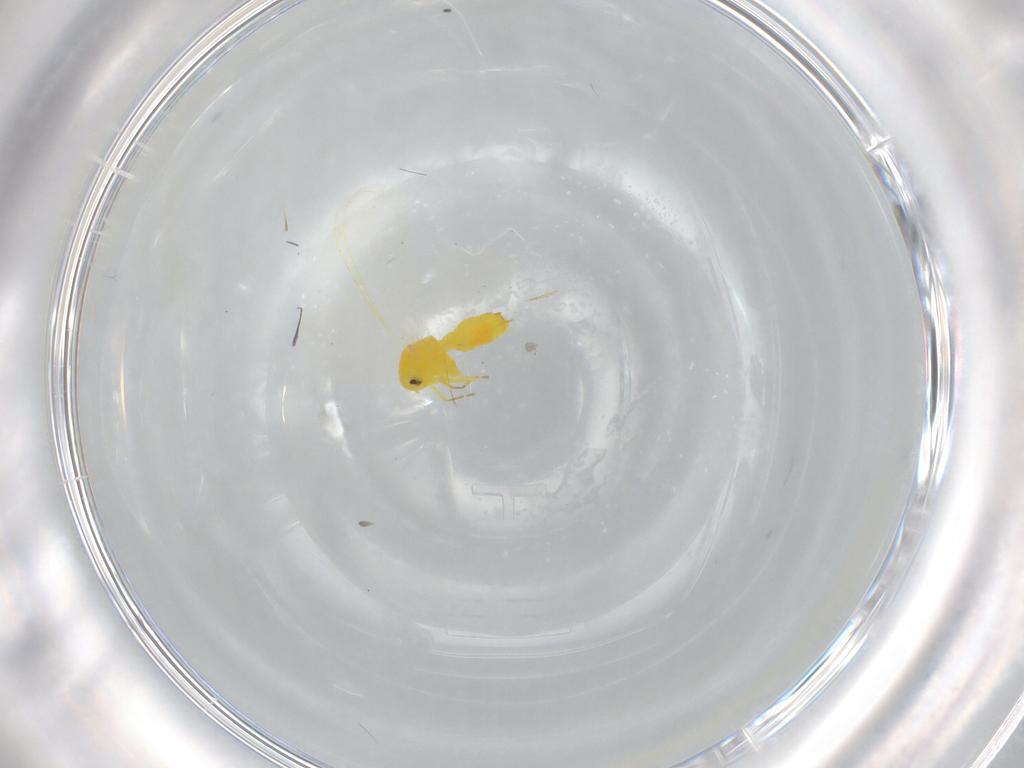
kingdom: Animalia
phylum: Arthropoda
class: Insecta
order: Hemiptera
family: Aleyrodidae
